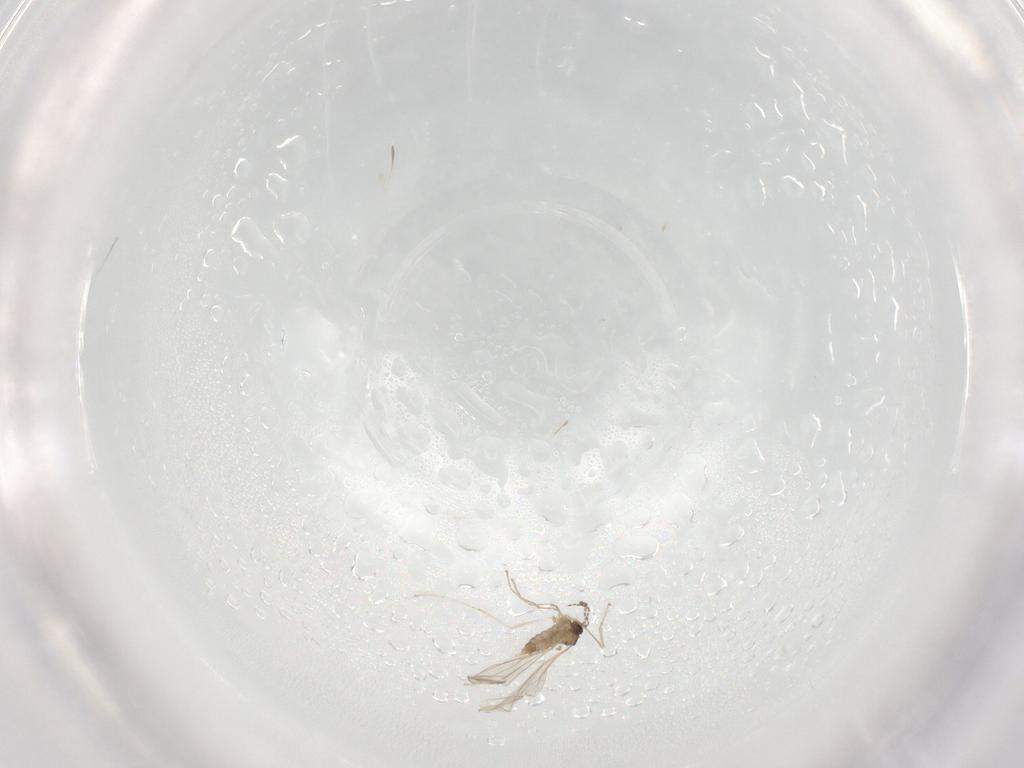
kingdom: Animalia
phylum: Arthropoda
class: Insecta
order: Diptera
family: Cecidomyiidae
